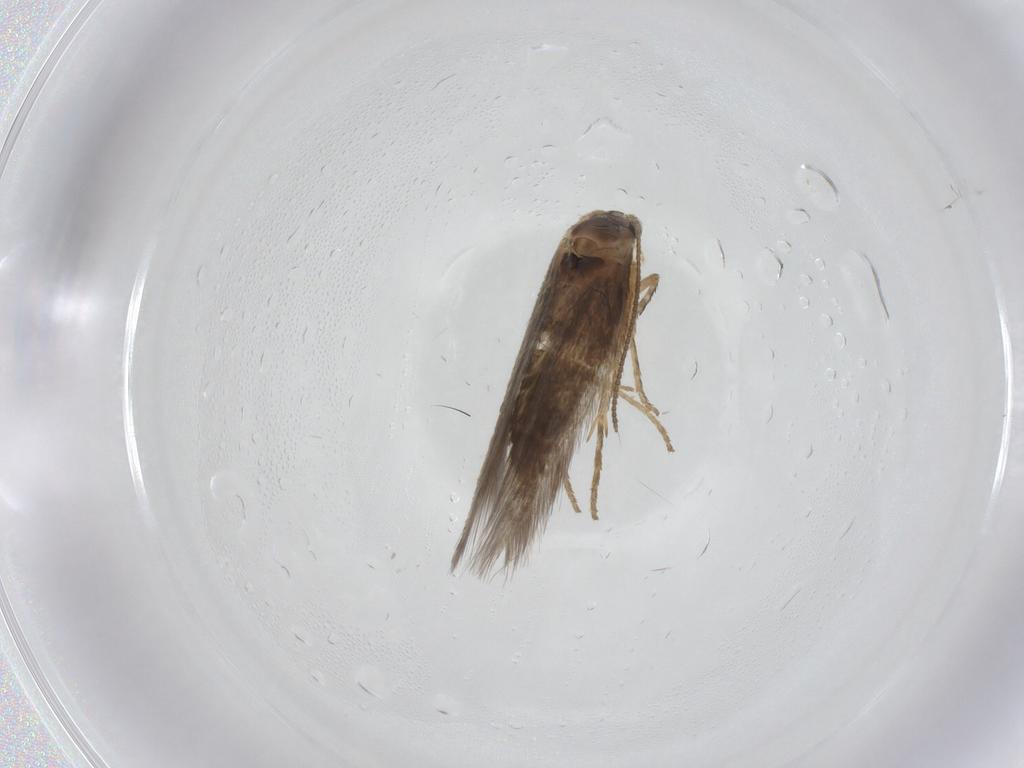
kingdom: Animalia
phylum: Arthropoda
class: Insecta
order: Lepidoptera
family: Nepticulidae
